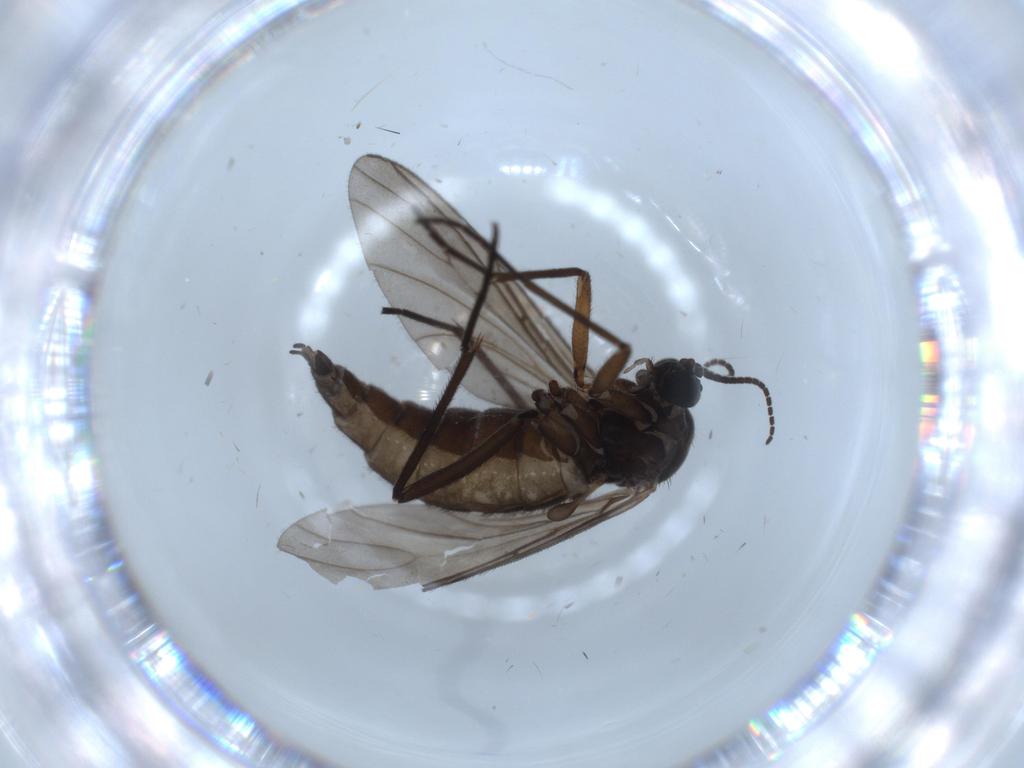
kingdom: Animalia
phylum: Arthropoda
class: Insecta
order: Diptera
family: Sciaridae
